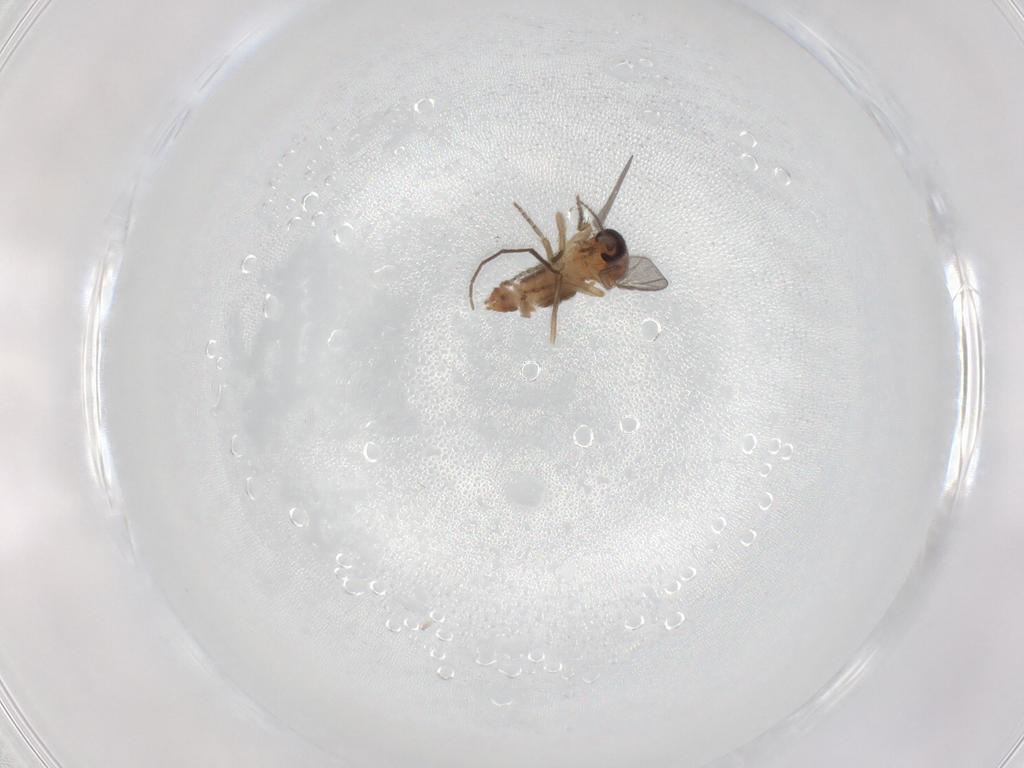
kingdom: Animalia
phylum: Arthropoda
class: Insecta
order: Diptera
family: Ceratopogonidae
